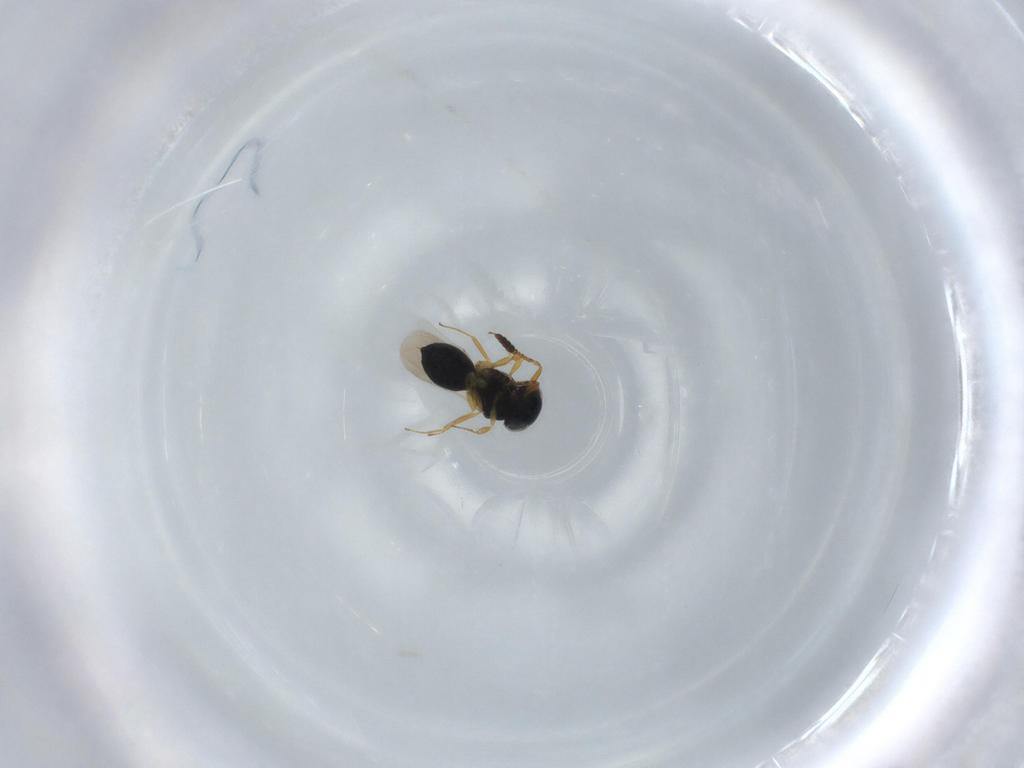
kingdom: Animalia
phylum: Arthropoda
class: Insecta
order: Hymenoptera
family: Scelionidae
